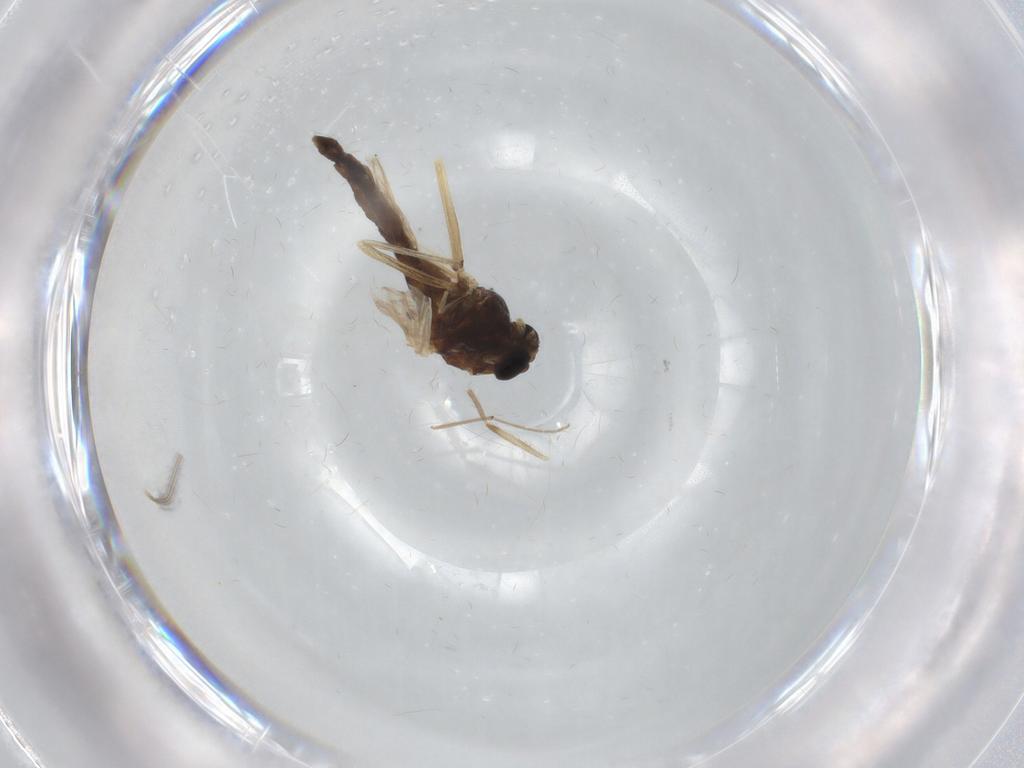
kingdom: Animalia
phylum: Arthropoda
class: Insecta
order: Diptera
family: Chironomidae
